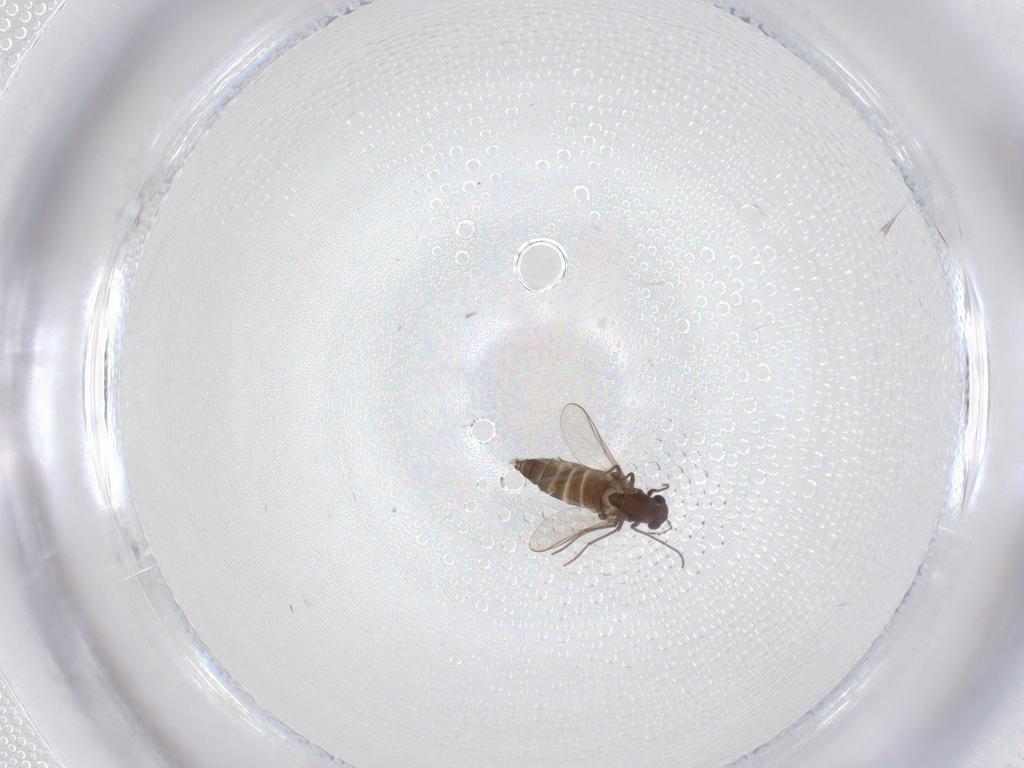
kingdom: Animalia
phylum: Arthropoda
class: Insecta
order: Diptera
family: Chironomidae
